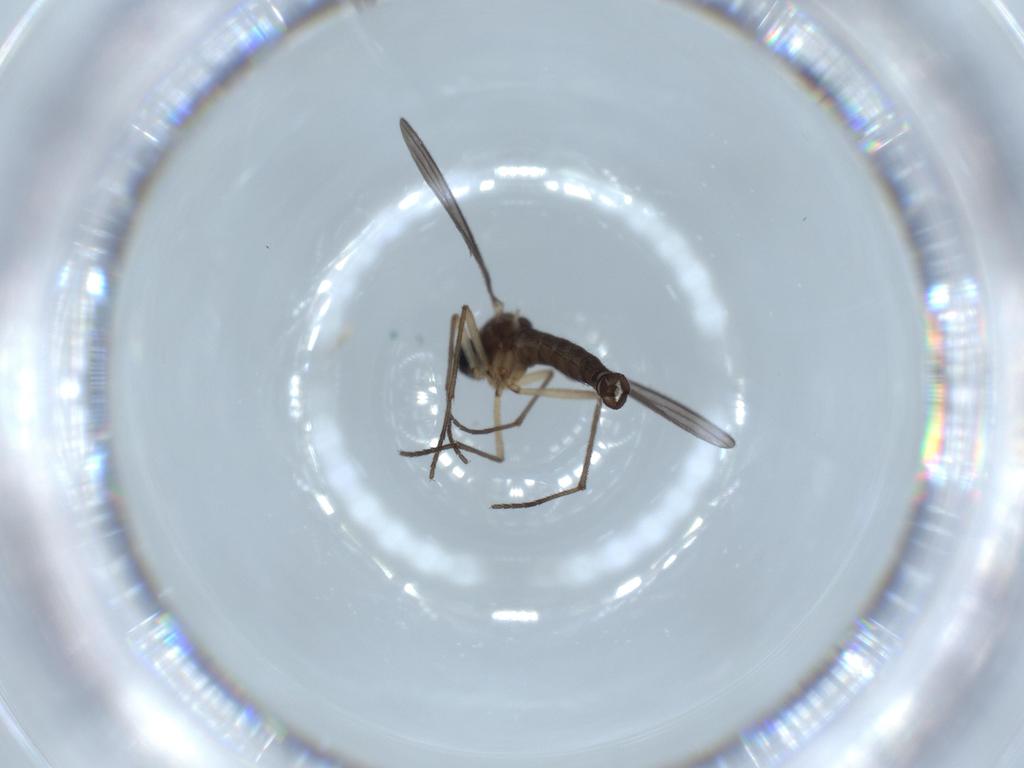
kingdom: Animalia
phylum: Arthropoda
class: Insecta
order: Diptera
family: Sciaridae
